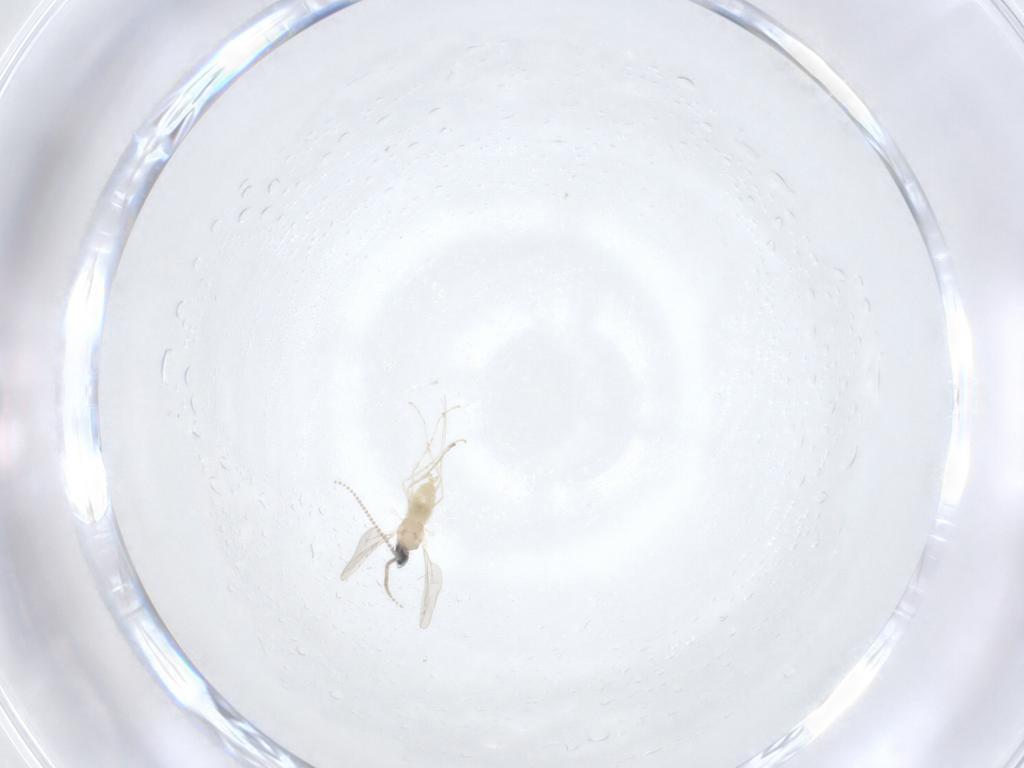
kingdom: Animalia
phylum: Arthropoda
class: Insecta
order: Diptera
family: Cecidomyiidae
